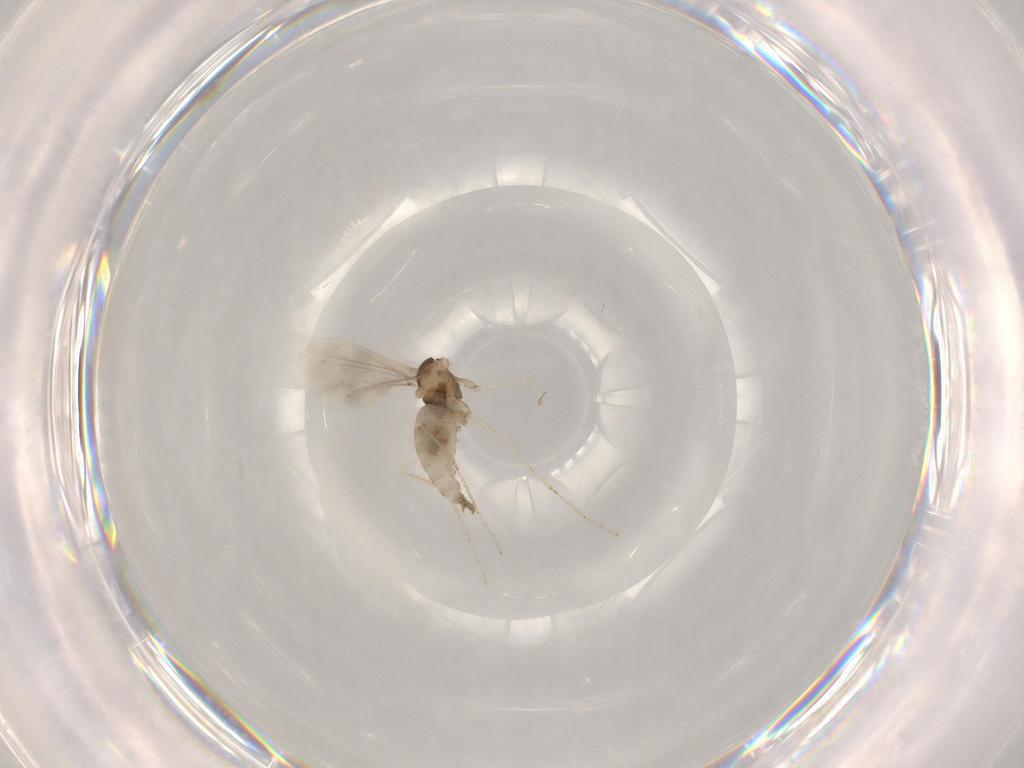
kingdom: Animalia
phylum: Arthropoda
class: Insecta
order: Diptera
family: Cecidomyiidae
